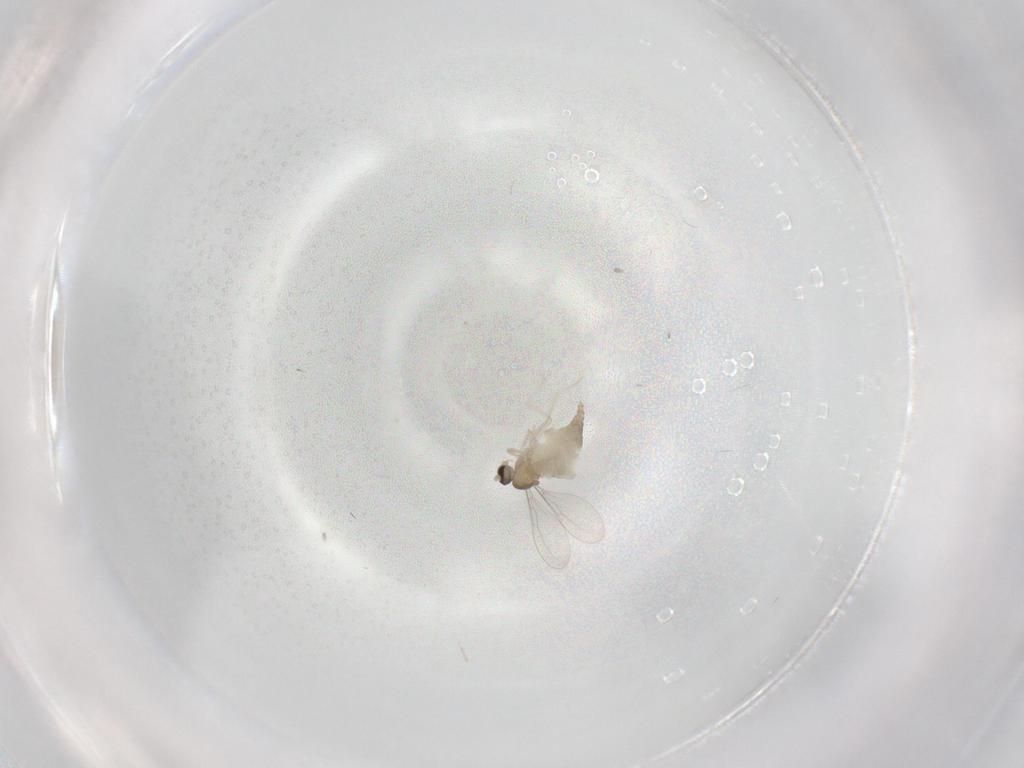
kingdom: Animalia
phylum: Arthropoda
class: Insecta
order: Diptera
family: Cecidomyiidae
